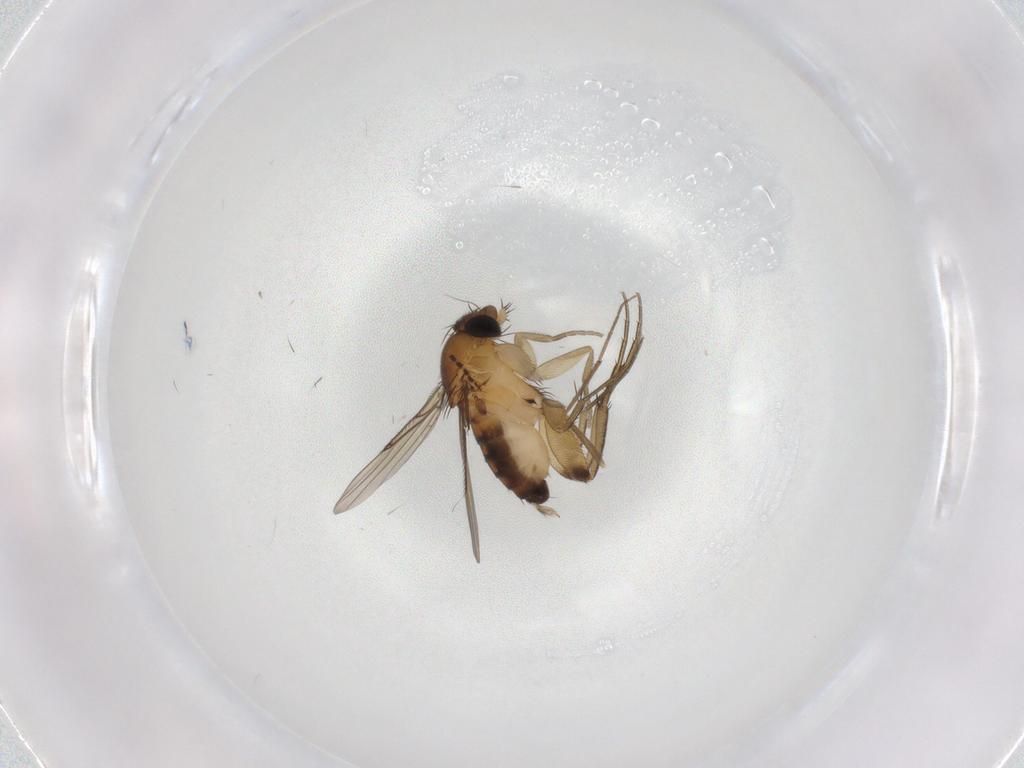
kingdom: Animalia
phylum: Arthropoda
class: Insecta
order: Diptera
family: Phoridae
